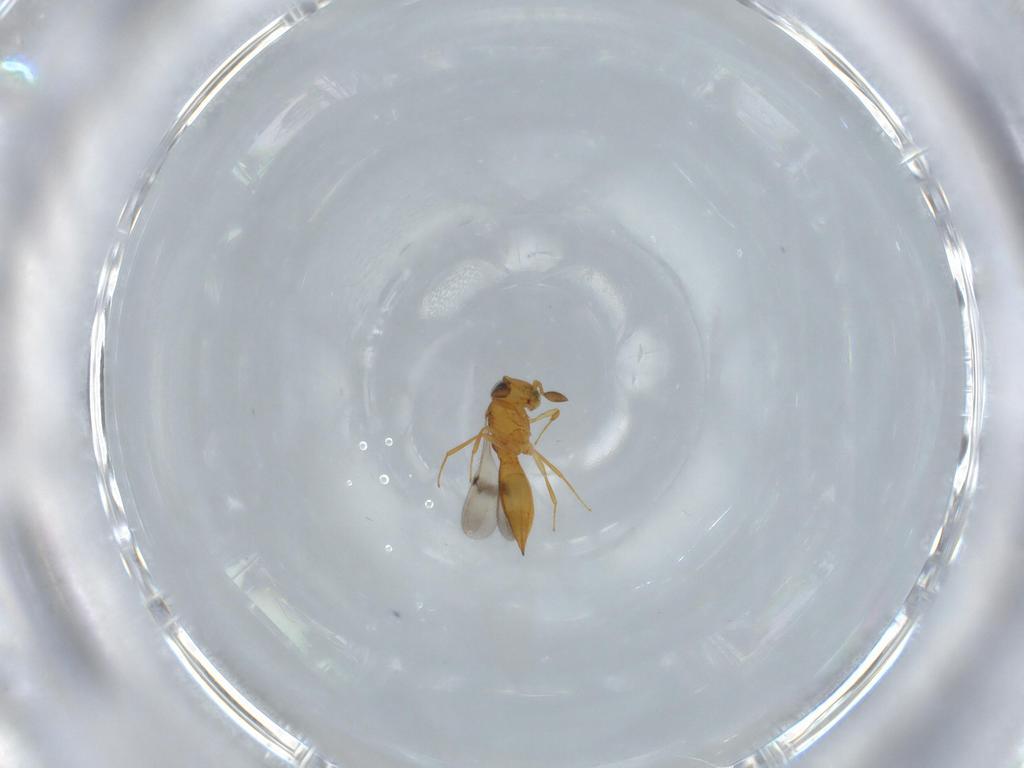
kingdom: Animalia
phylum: Arthropoda
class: Insecta
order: Hymenoptera
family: Scelionidae
